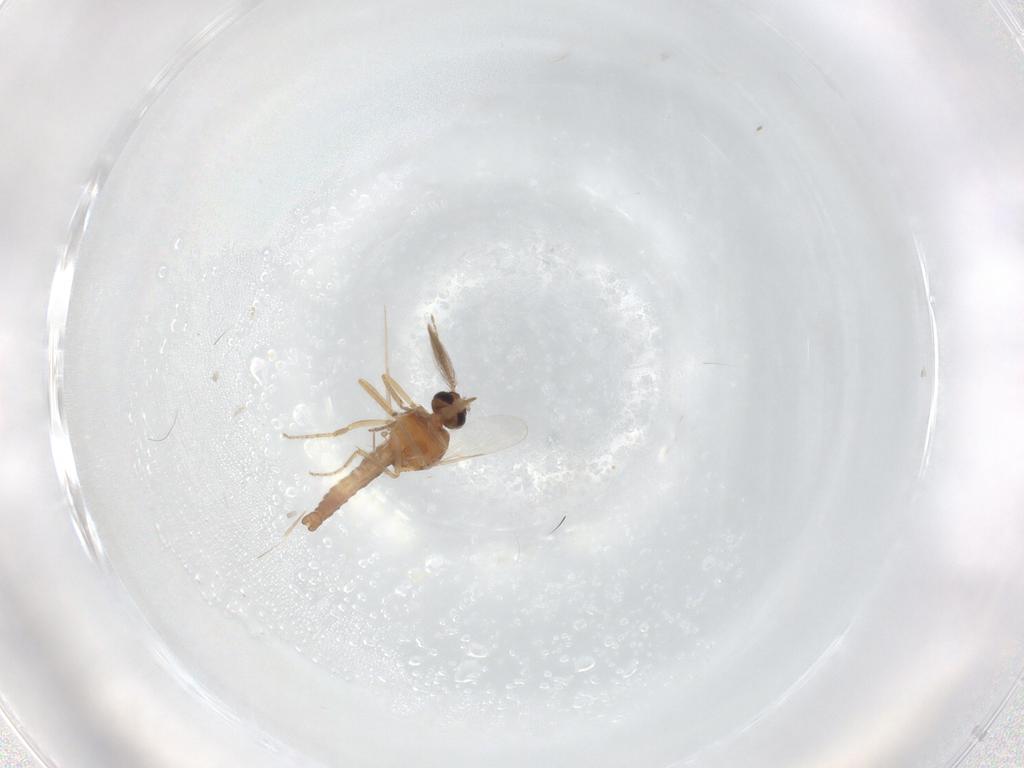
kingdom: Animalia
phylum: Arthropoda
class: Insecta
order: Diptera
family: Ceratopogonidae
